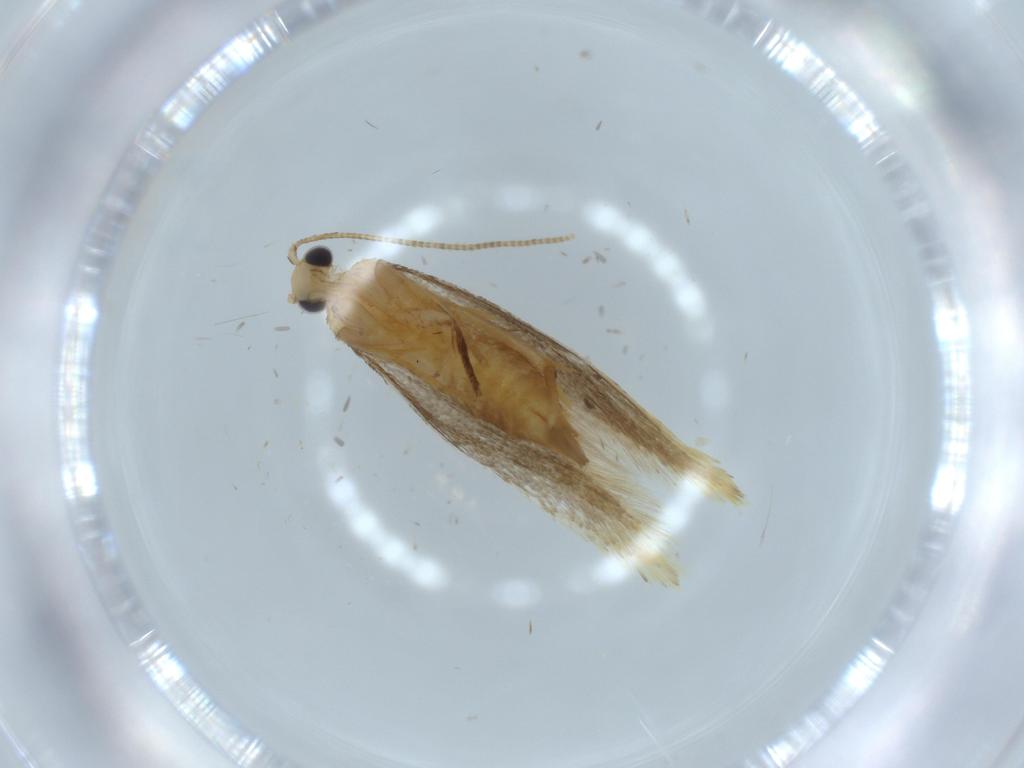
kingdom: Animalia
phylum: Arthropoda
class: Insecta
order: Lepidoptera
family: Tineidae
